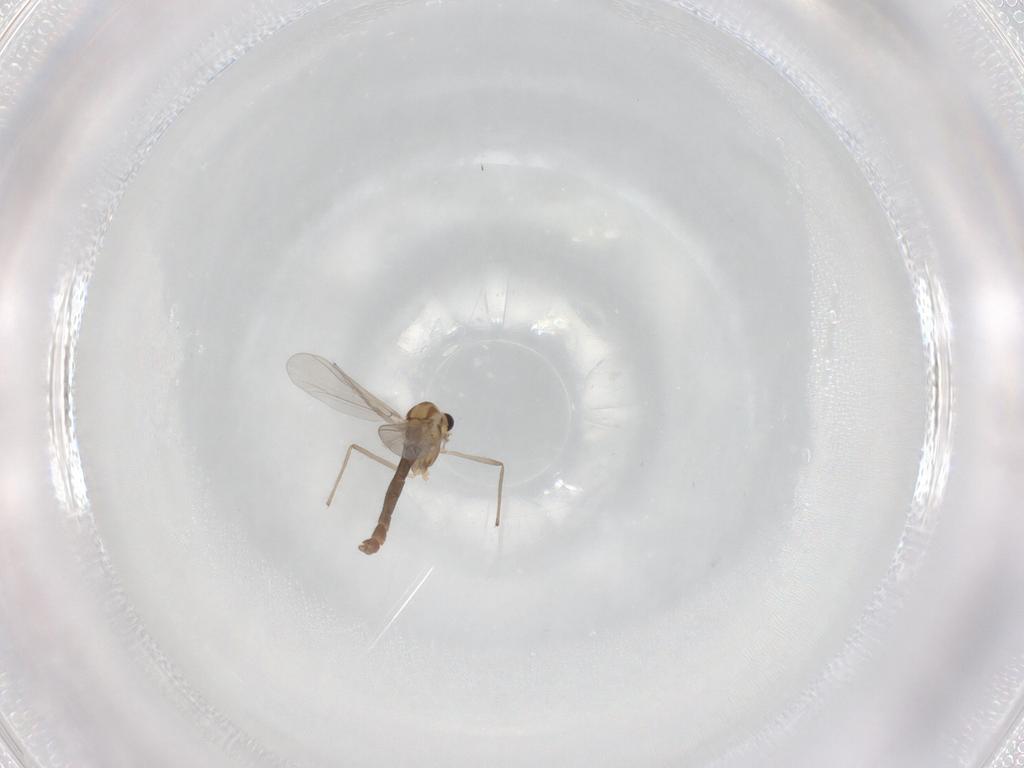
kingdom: Animalia
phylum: Arthropoda
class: Insecta
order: Diptera
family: Chironomidae
